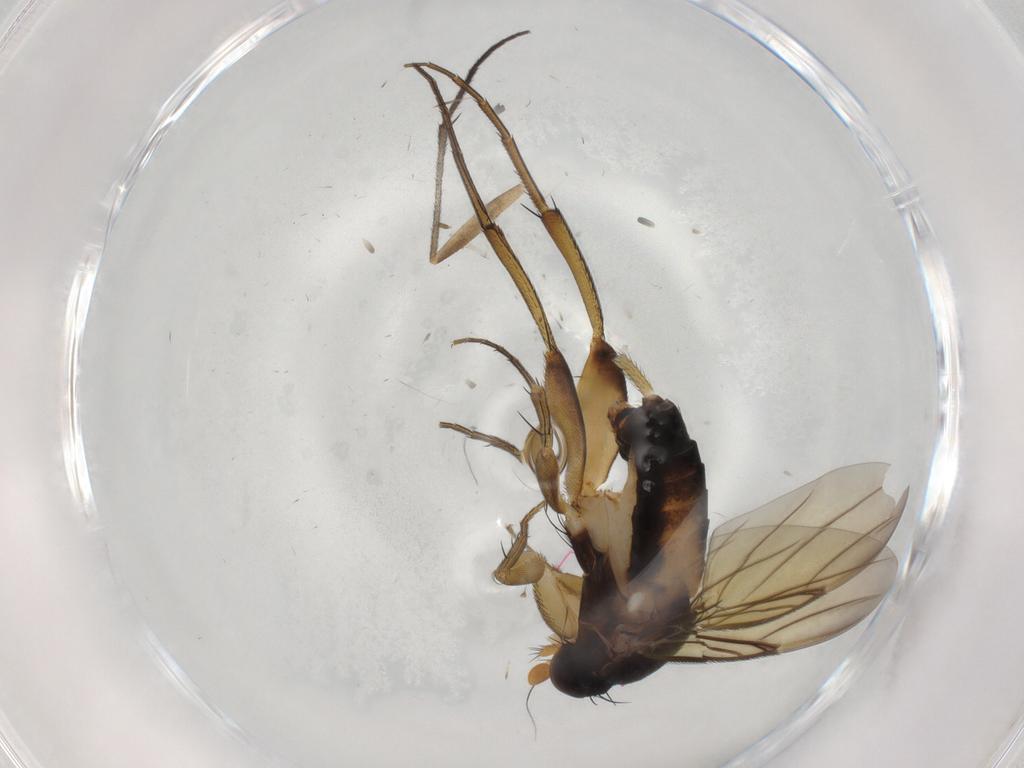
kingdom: Animalia
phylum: Arthropoda
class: Insecta
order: Diptera
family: Phoridae
